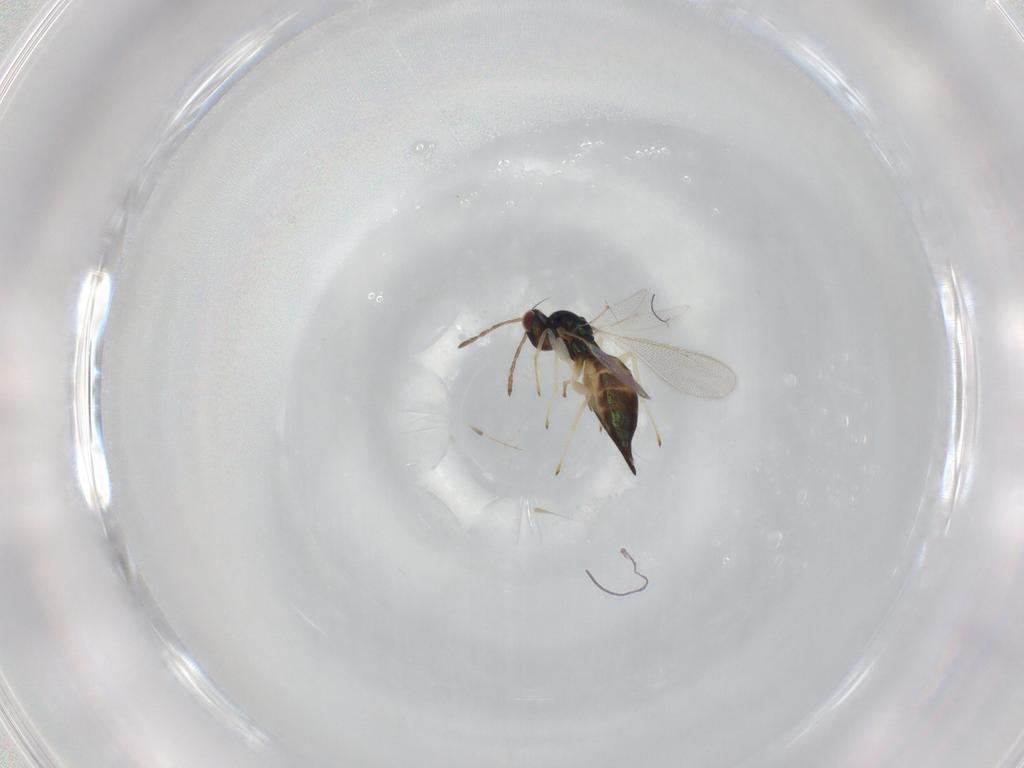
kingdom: Animalia
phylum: Arthropoda
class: Insecta
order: Hymenoptera
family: Eulophidae
